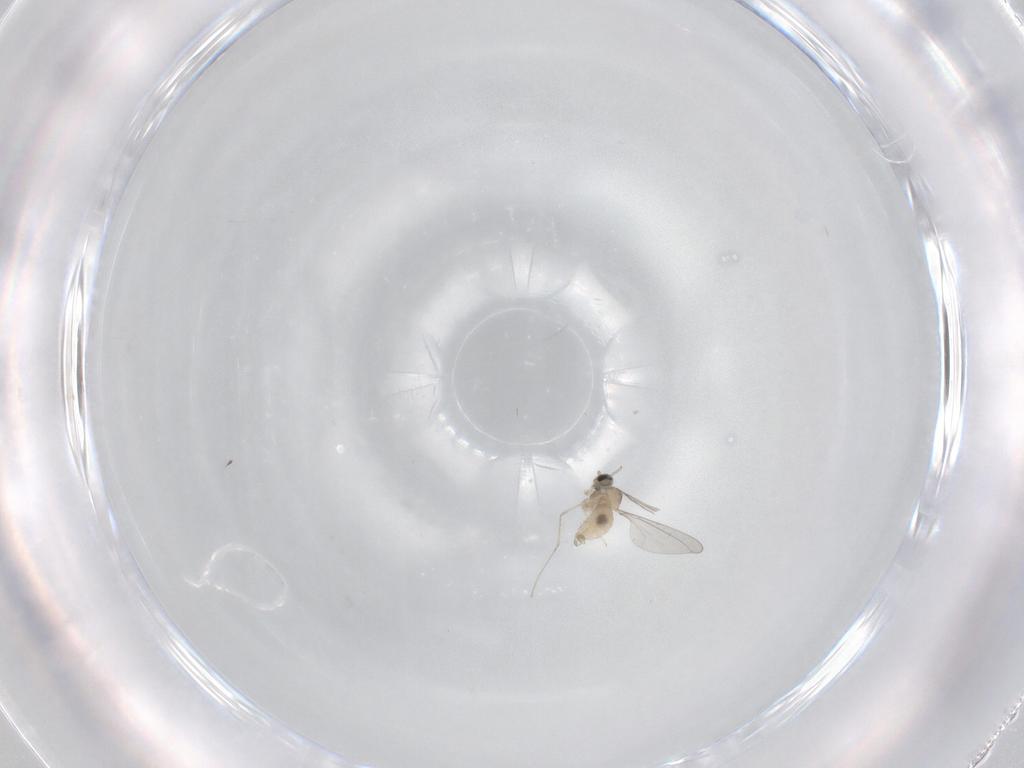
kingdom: Animalia
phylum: Arthropoda
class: Insecta
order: Diptera
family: Cecidomyiidae
